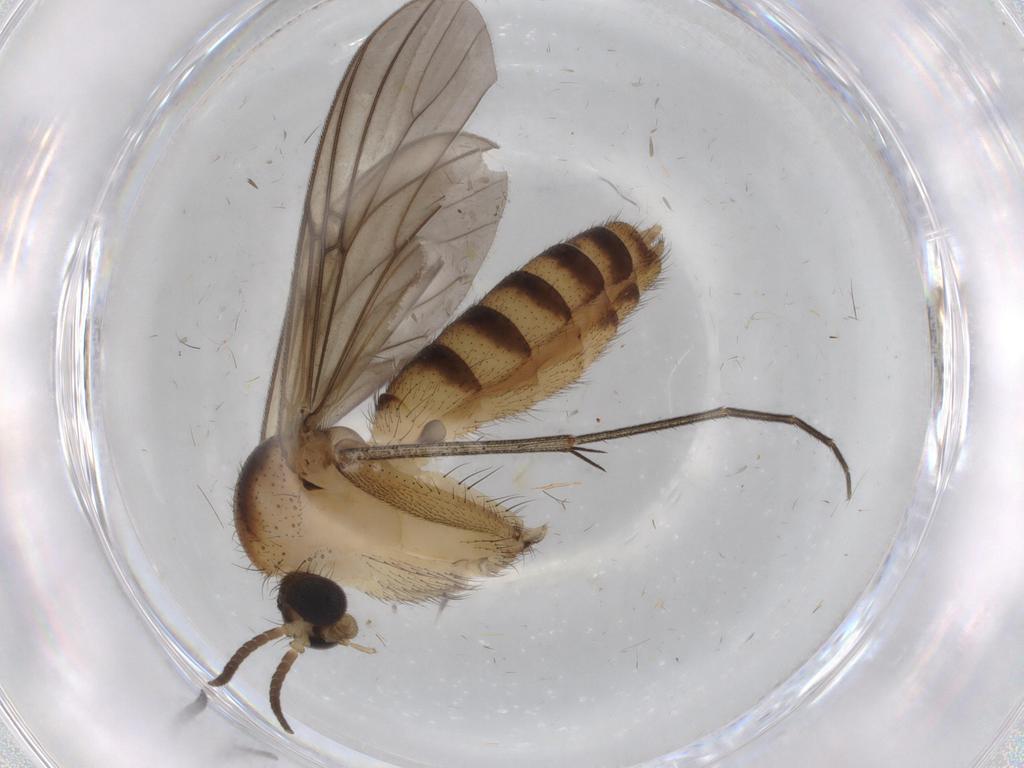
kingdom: Animalia
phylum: Arthropoda
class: Insecta
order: Diptera
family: Mycetophilidae
